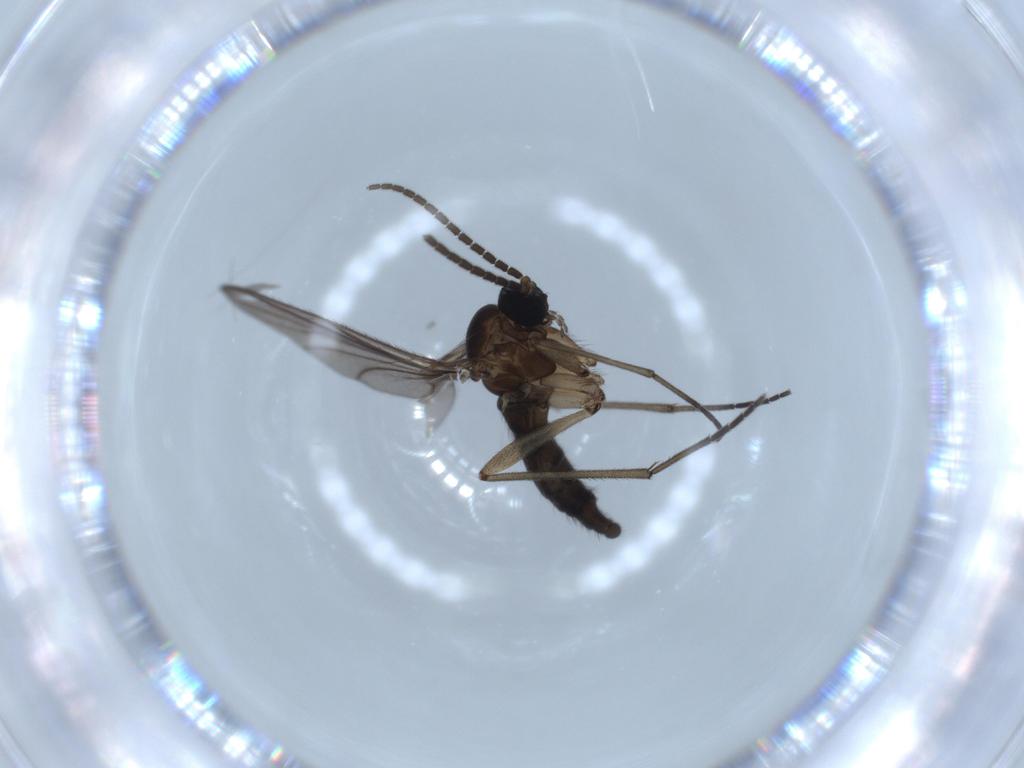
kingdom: Animalia
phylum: Arthropoda
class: Insecta
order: Diptera
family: Sciaridae
